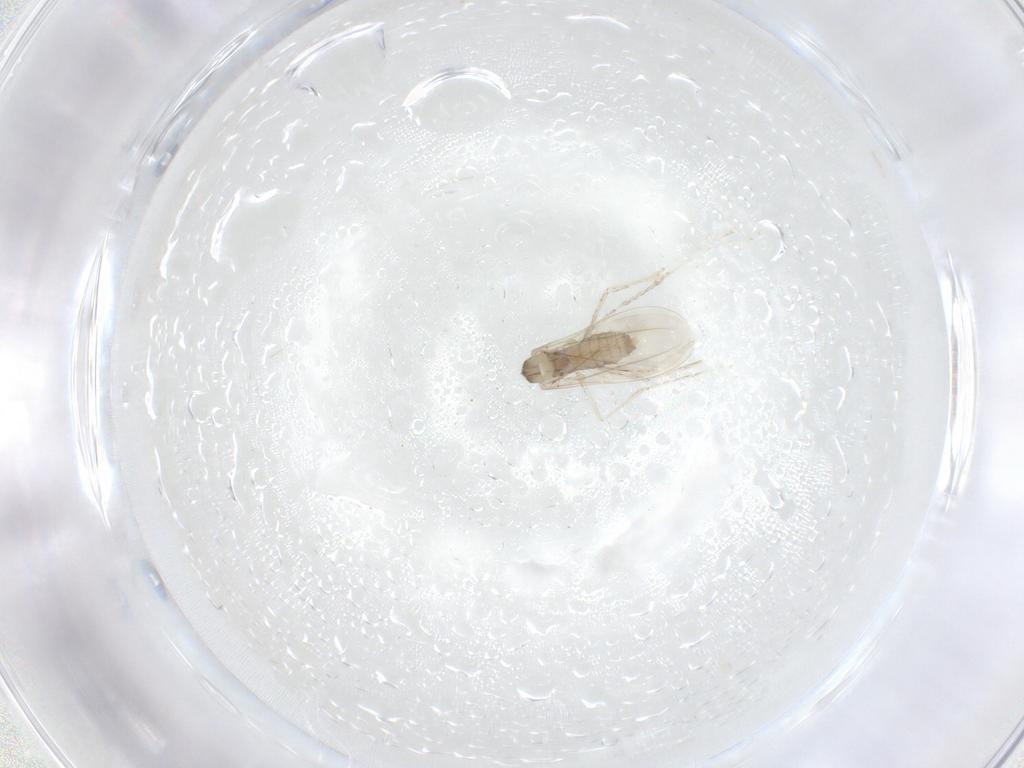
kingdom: Animalia
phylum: Arthropoda
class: Insecta
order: Diptera
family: Cecidomyiidae
